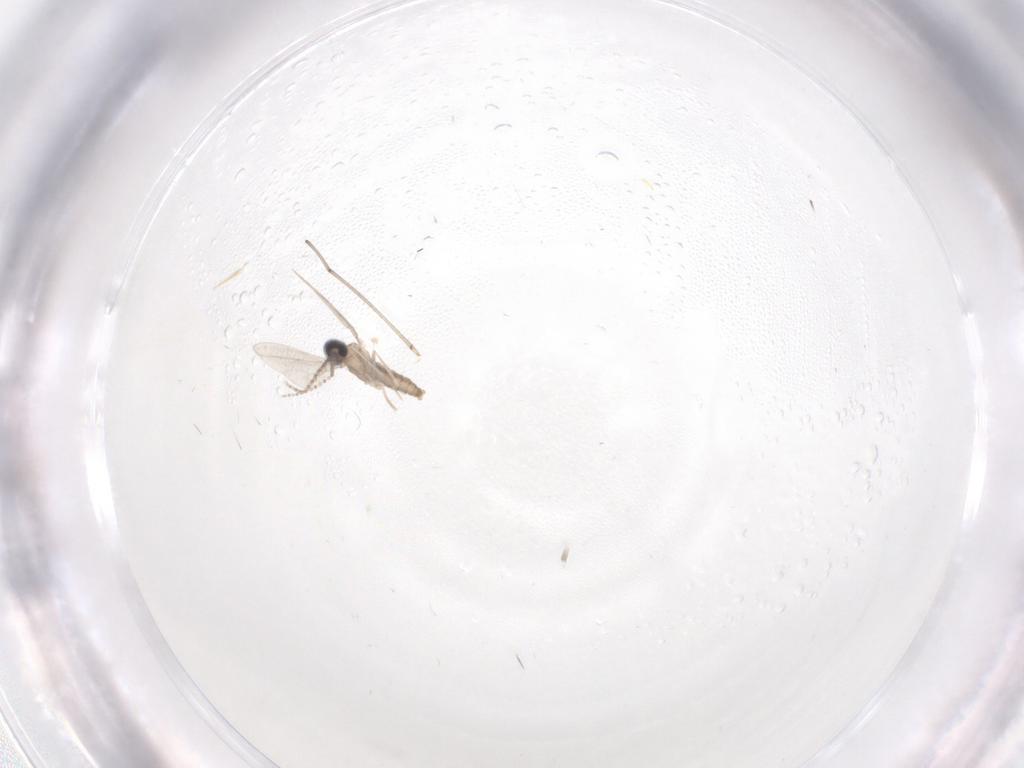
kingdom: Animalia
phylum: Arthropoda
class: Insecta
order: Diptera
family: Cecidomyiidae
